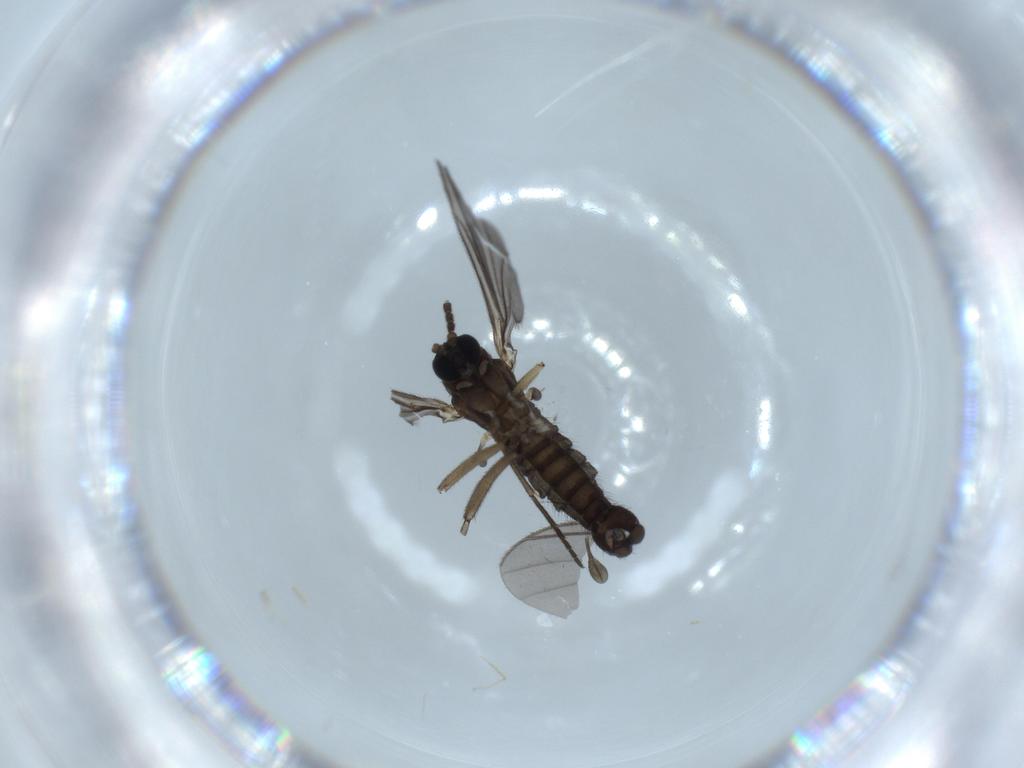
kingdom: Animalia
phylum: Arthropoda
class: Insecta
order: Diptera
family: Sciaridae
